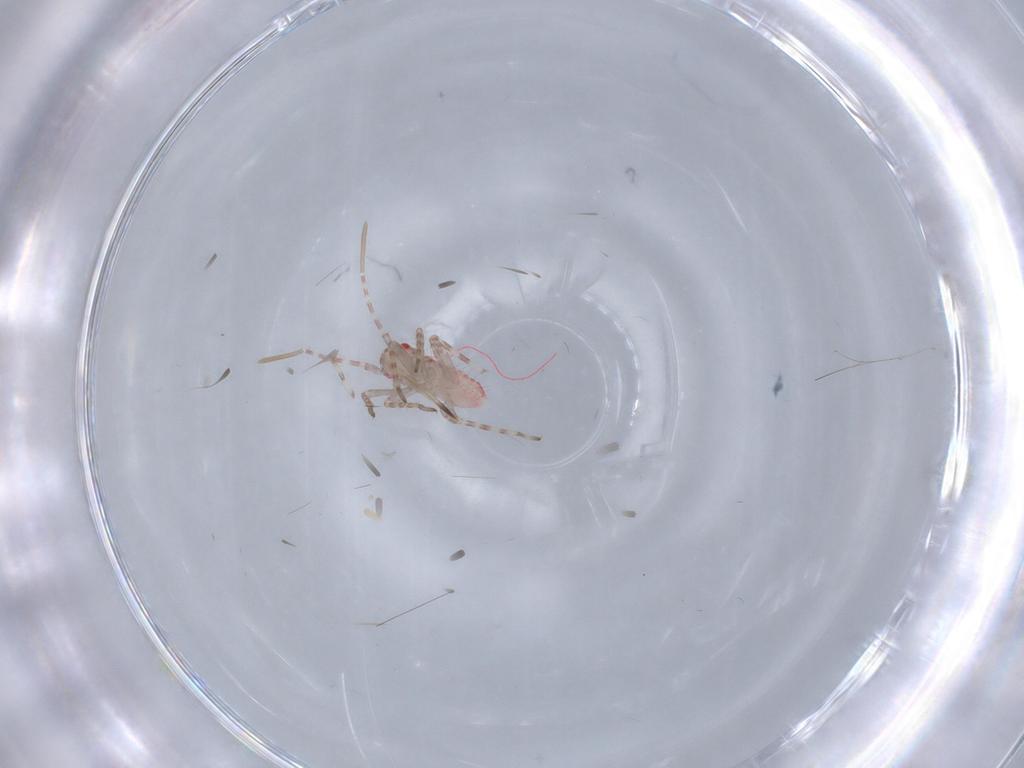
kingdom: Animalia
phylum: Arthropoda
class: Insecta
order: Hemiptera
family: Miridae
